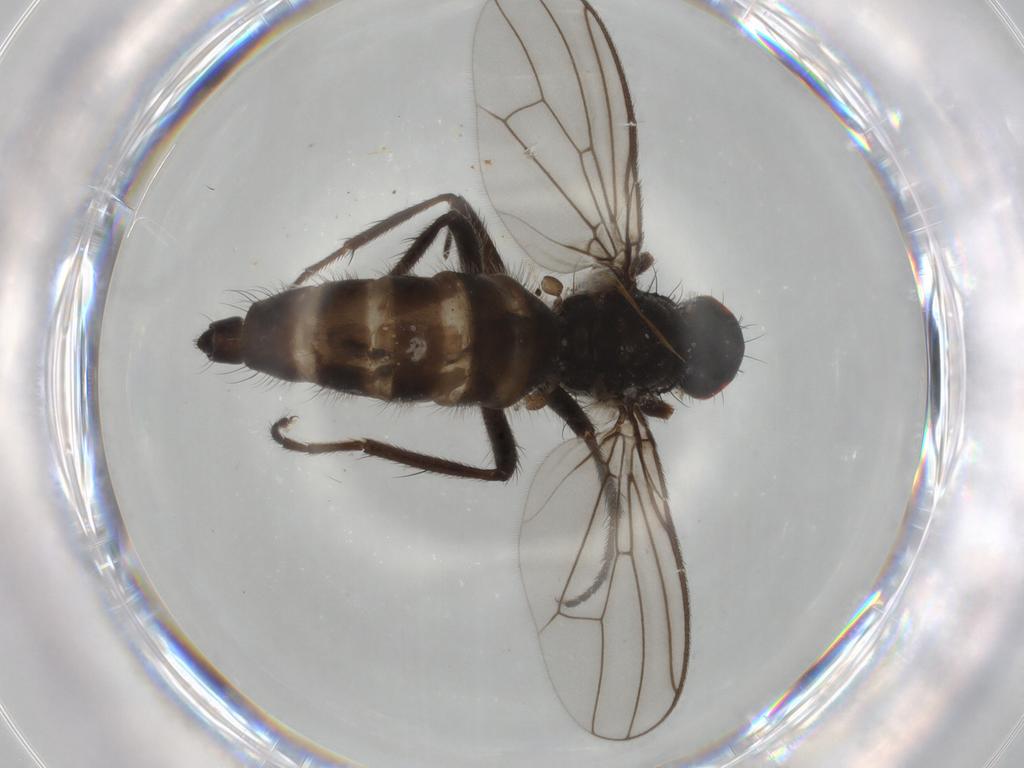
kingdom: Animalia
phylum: Arthropoda
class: Insecta
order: Diptera
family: Scathophagidae
